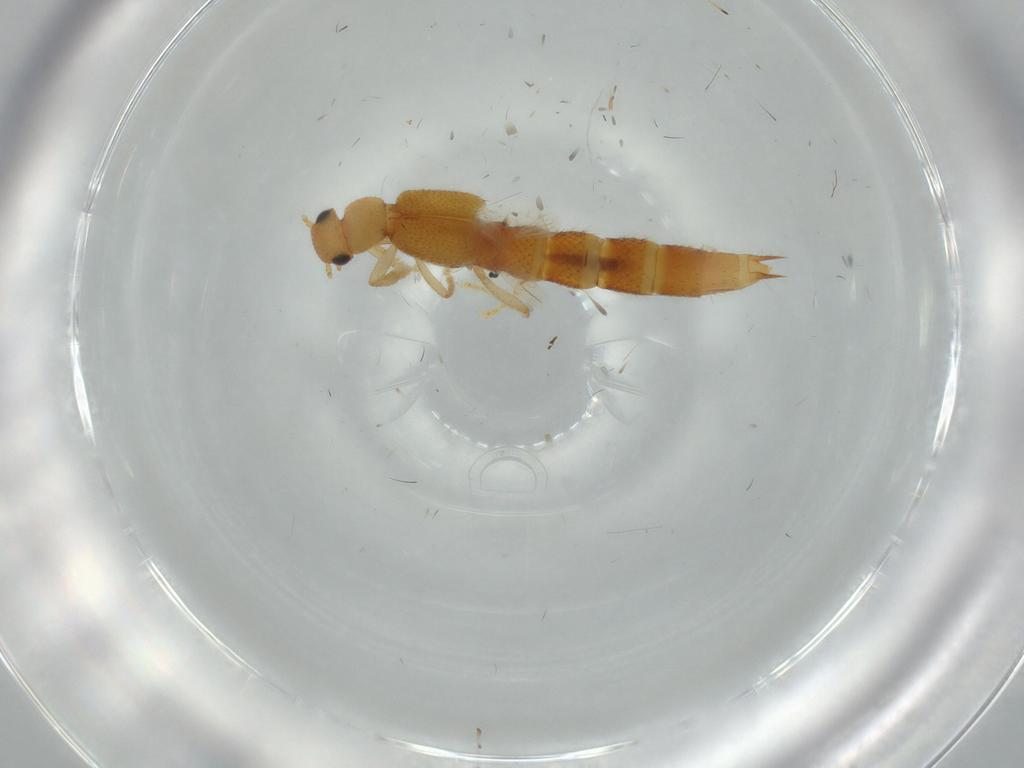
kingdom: Animalia
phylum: Arthropoda
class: Insecta
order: Coleoptera
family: Staphylinidae
